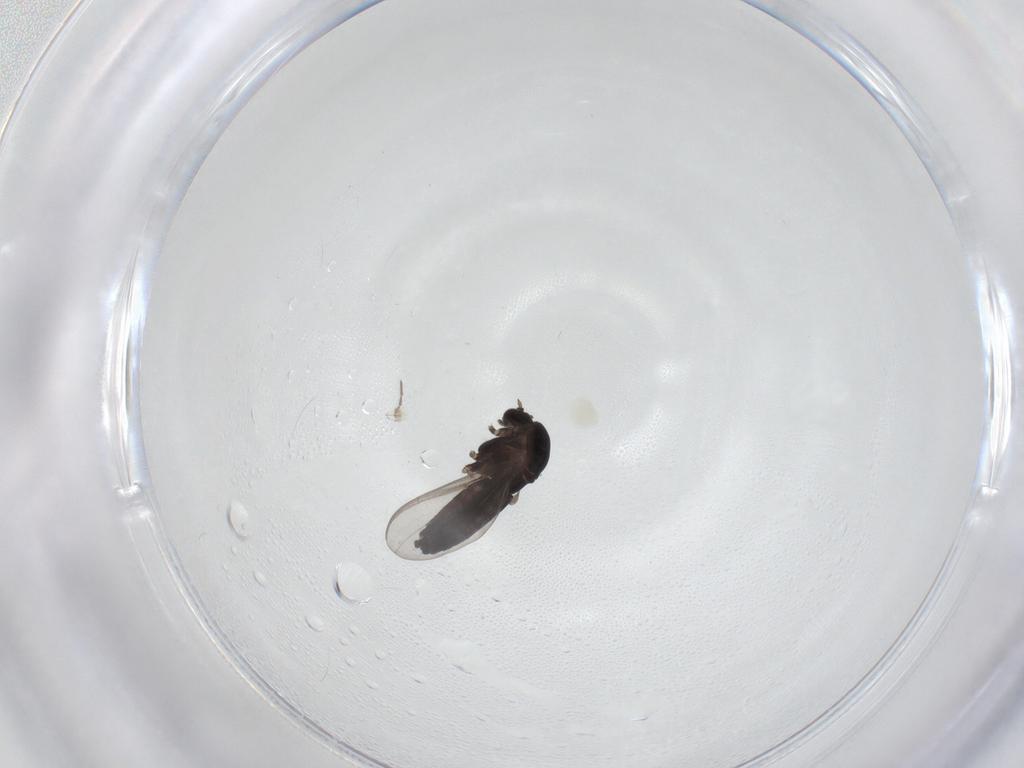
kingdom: Animalia
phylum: Arthropoda
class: Insecta
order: Diptera
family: Chironomidae
